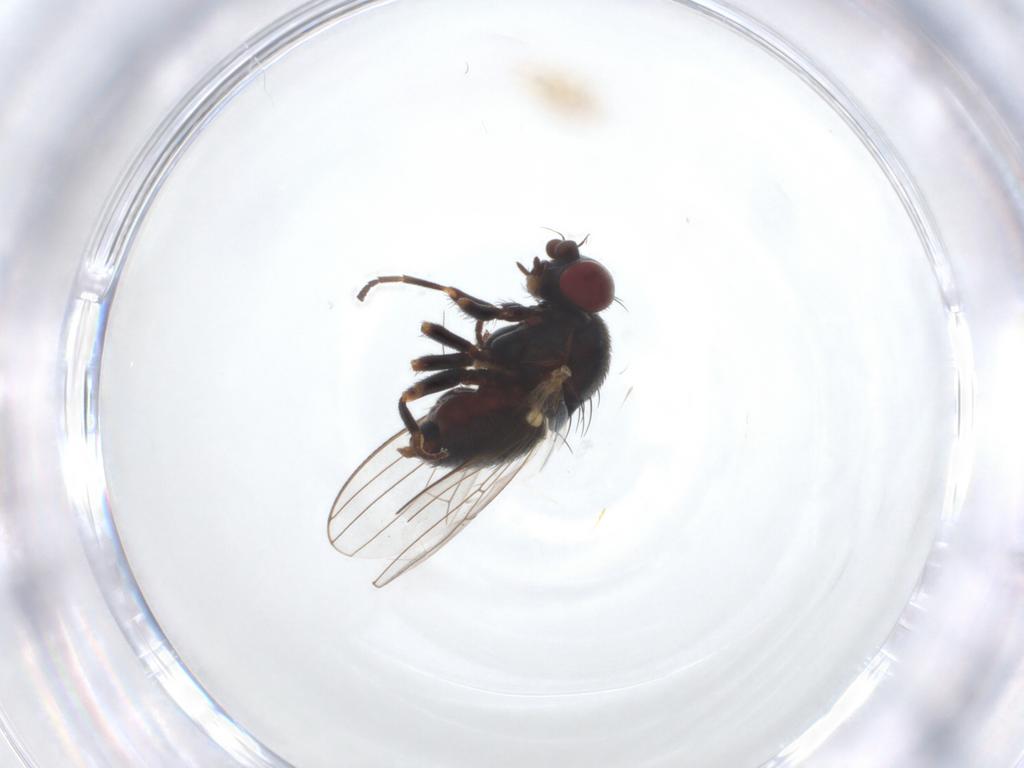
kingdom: Animalia
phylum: Arthropoda
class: Insecta
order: Diptera
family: Chamaemyiidae
